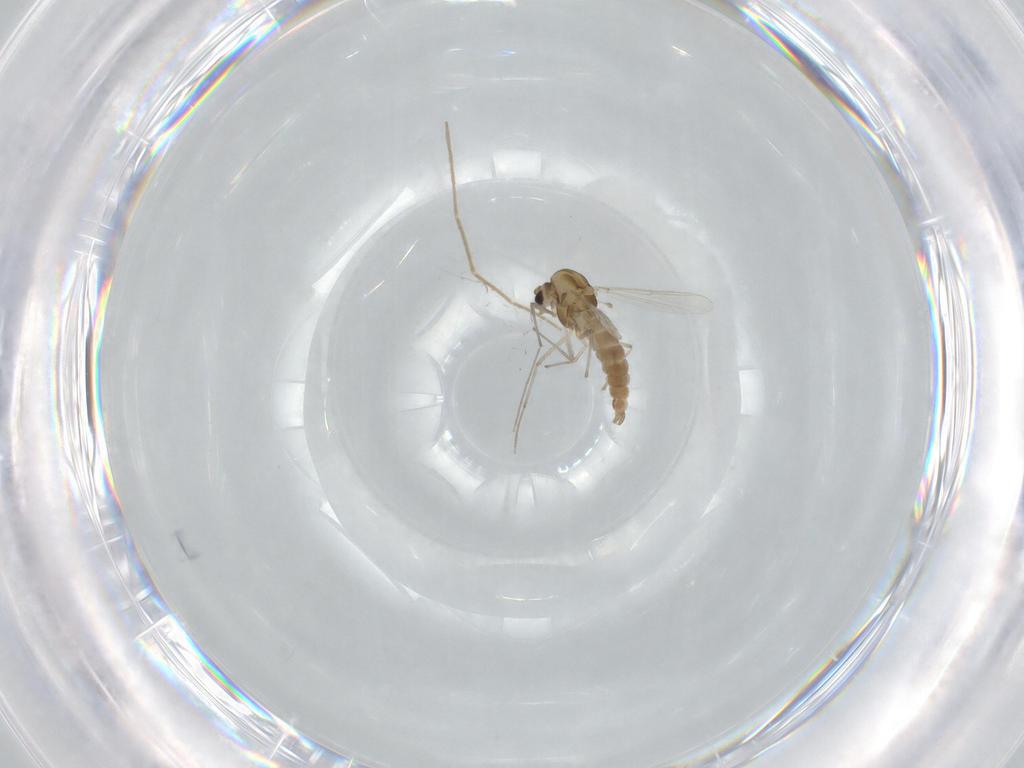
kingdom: Animalia
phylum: Arthropoda
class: Insecta
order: Diptera
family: Chironomidae
